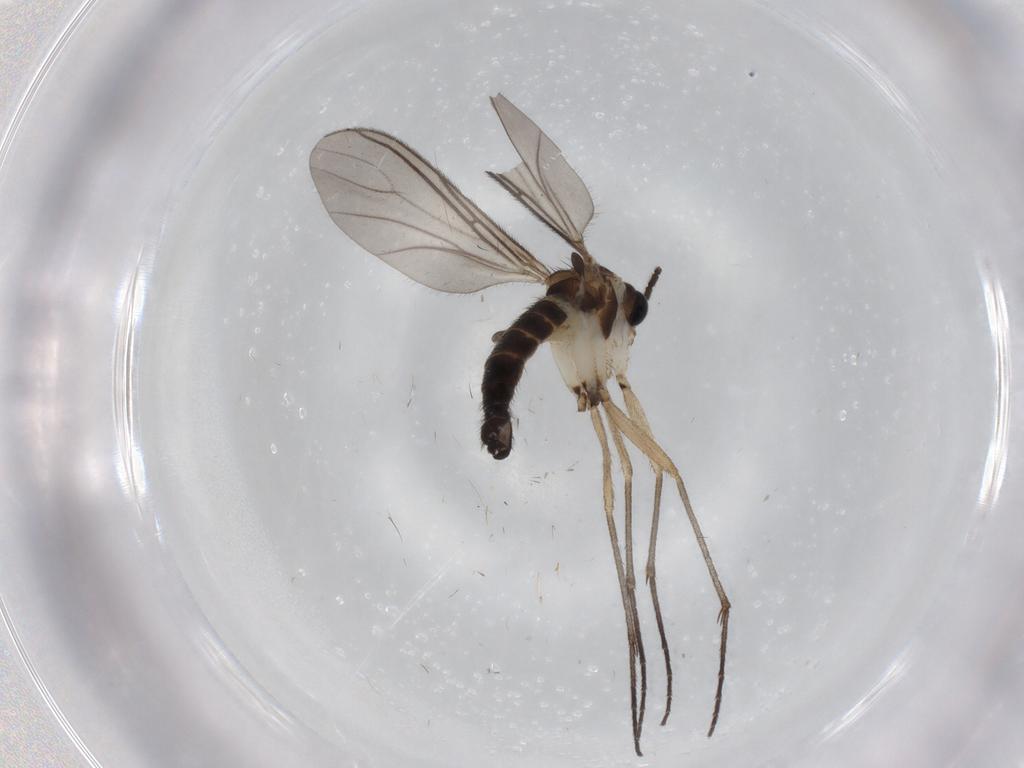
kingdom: Animalia
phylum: Arthropoda
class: Insecta
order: Diptera
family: Sciaridae
